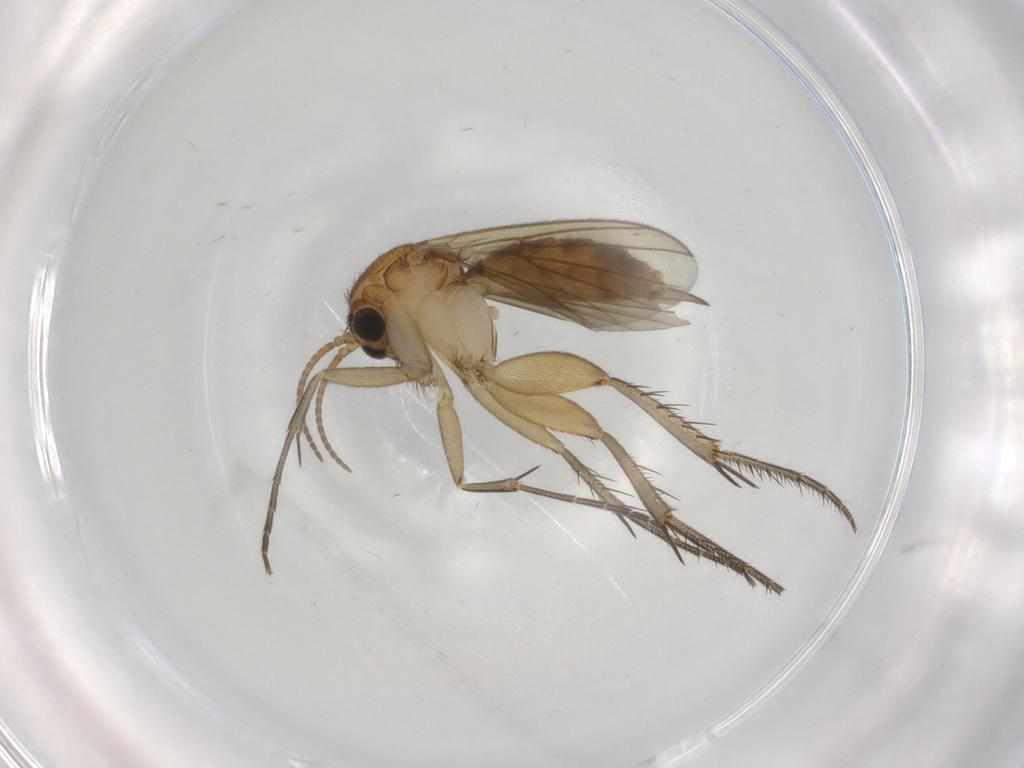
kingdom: Animalia
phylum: Arthropoda
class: Insecta
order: Diptera
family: Mycetophilidae
